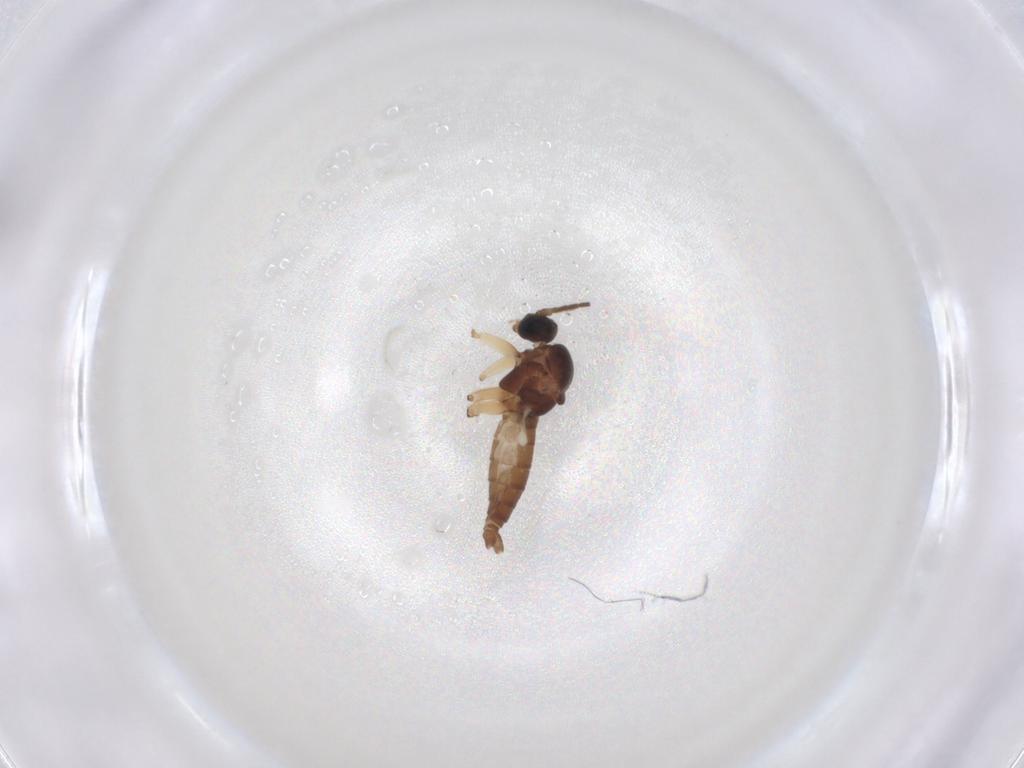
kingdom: Animalia
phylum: Arthropoda
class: Insecta
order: Diptera
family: Sciaridae
